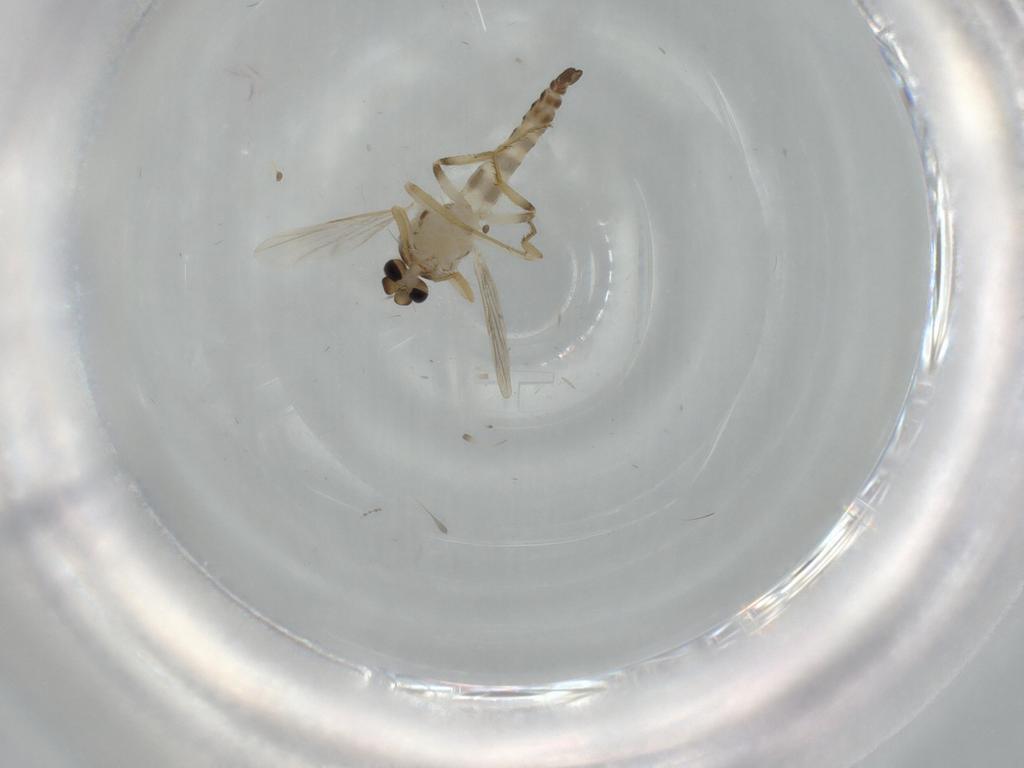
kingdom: Animalia
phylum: Arthropoda
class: Insecta
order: Diptera
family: Ceratopogonidae
